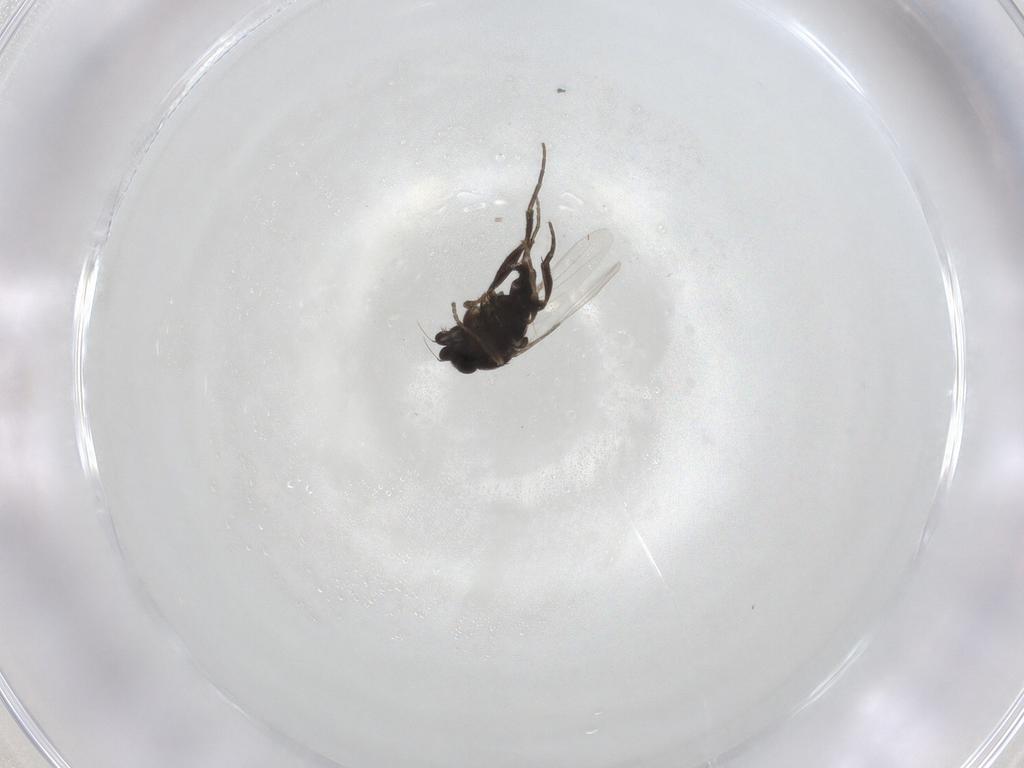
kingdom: Animalia
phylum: Arthropoda
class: Insecta
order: Diptera
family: Phoridae
